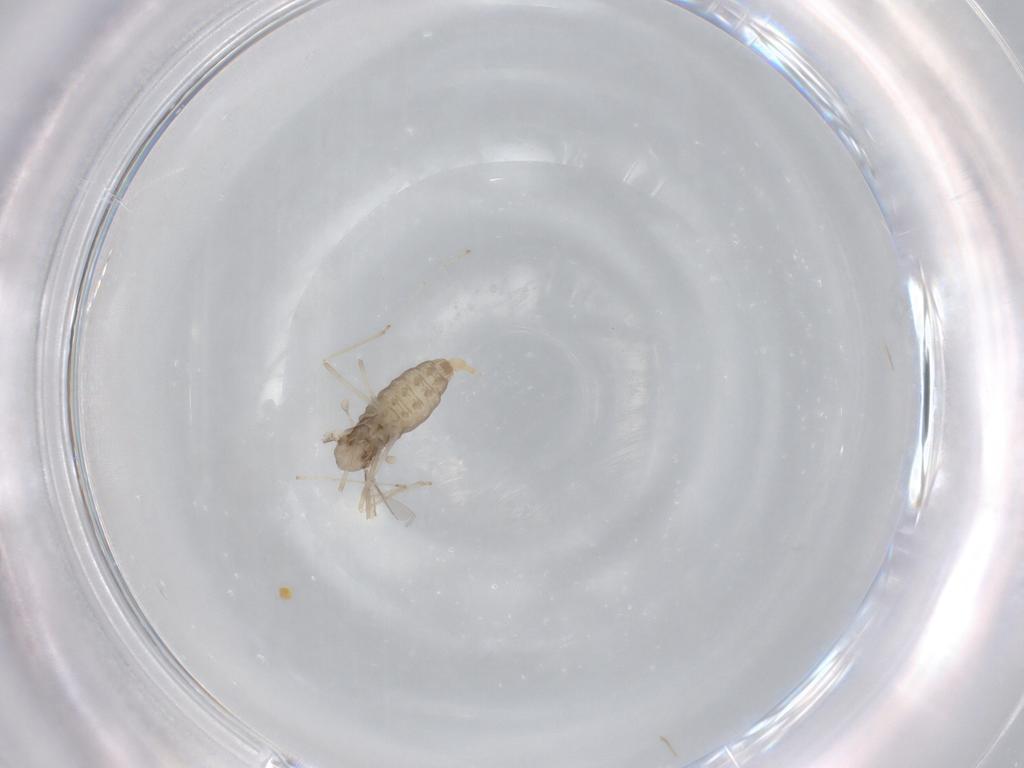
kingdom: Animalia
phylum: Arthropoda
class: Insecta
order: Diptera
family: Cecidomyiidae
